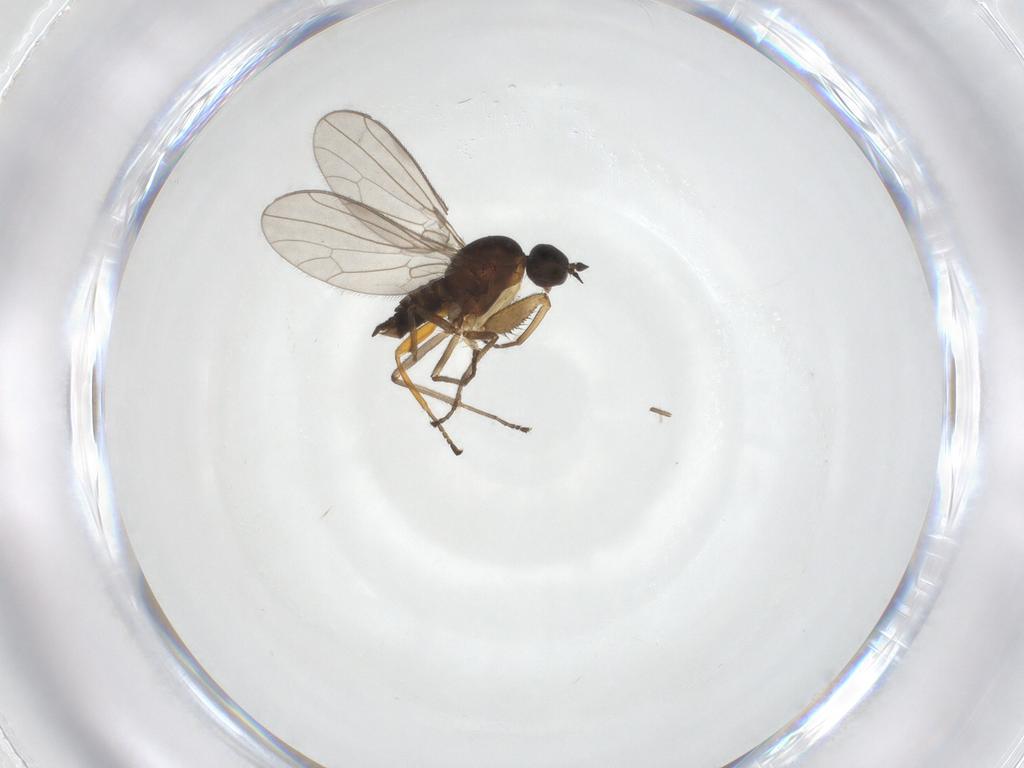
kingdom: Animalia
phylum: Arthropoda
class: Insecta
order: Diptera
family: Empididae
